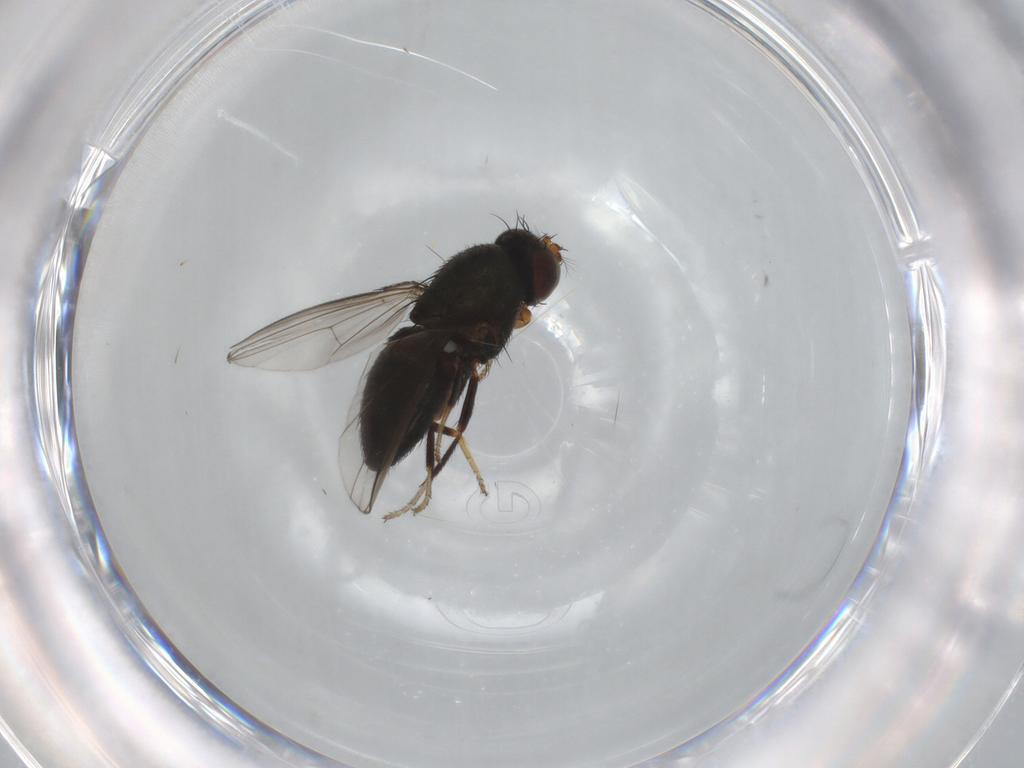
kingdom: Animalia
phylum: Arthropoda
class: Insecta
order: Diptera
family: Ephydridae
